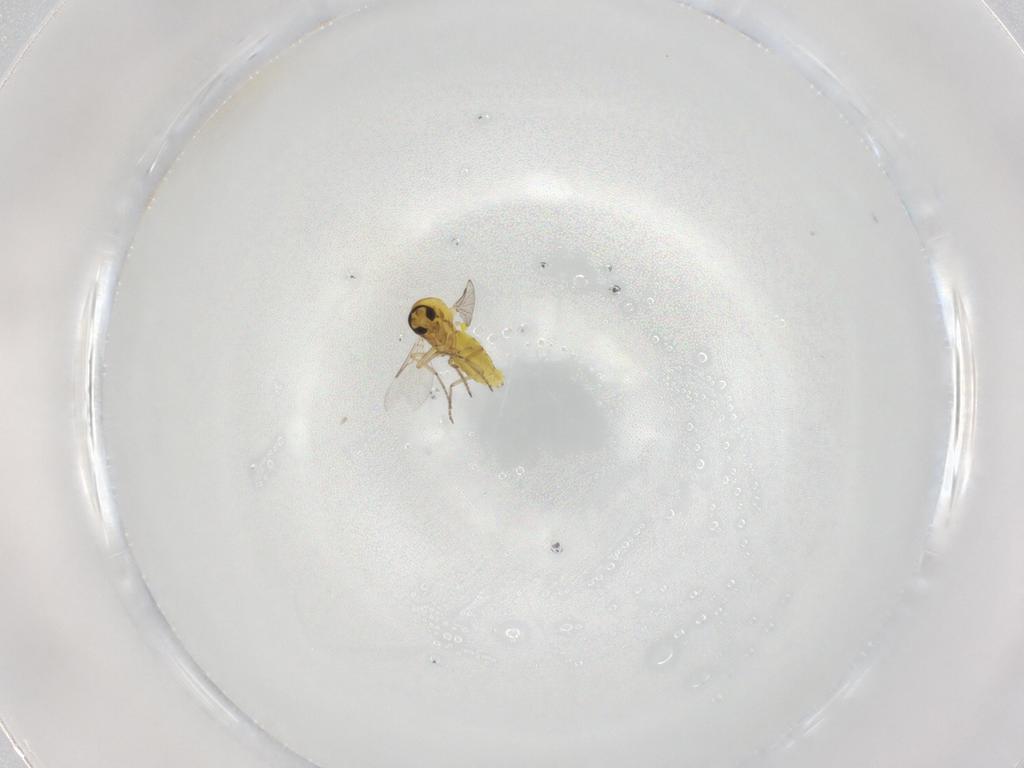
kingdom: Animalia
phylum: Arthropoda
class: Insecta
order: Diptera
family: Ceratopogonidae
